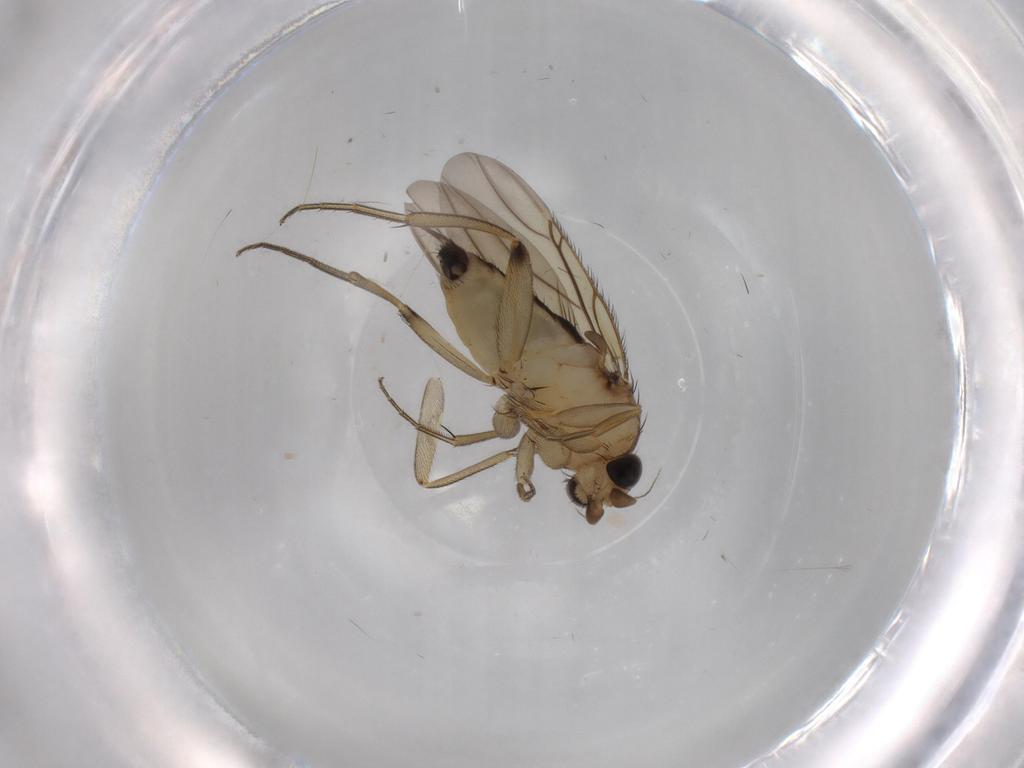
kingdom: Animalia
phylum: Arthropoda
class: Insecta
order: Diptera
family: Phoridae
